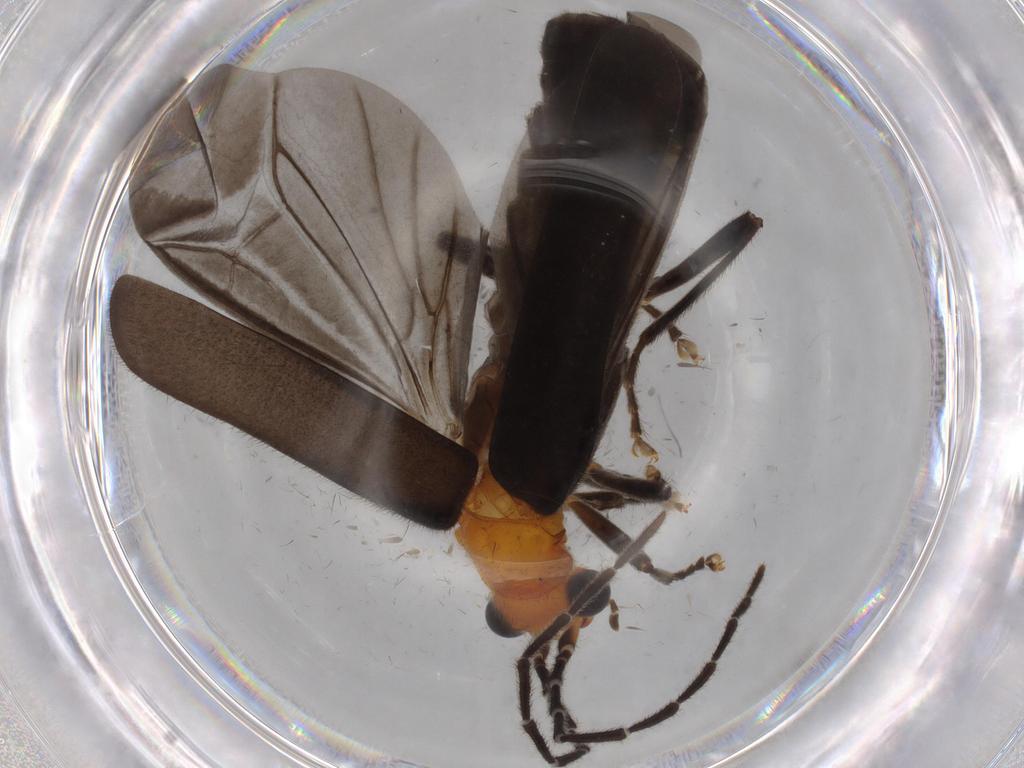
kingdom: Animalia
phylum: Arthropoda
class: Insecta
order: Coleoptera
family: Cantharidae
